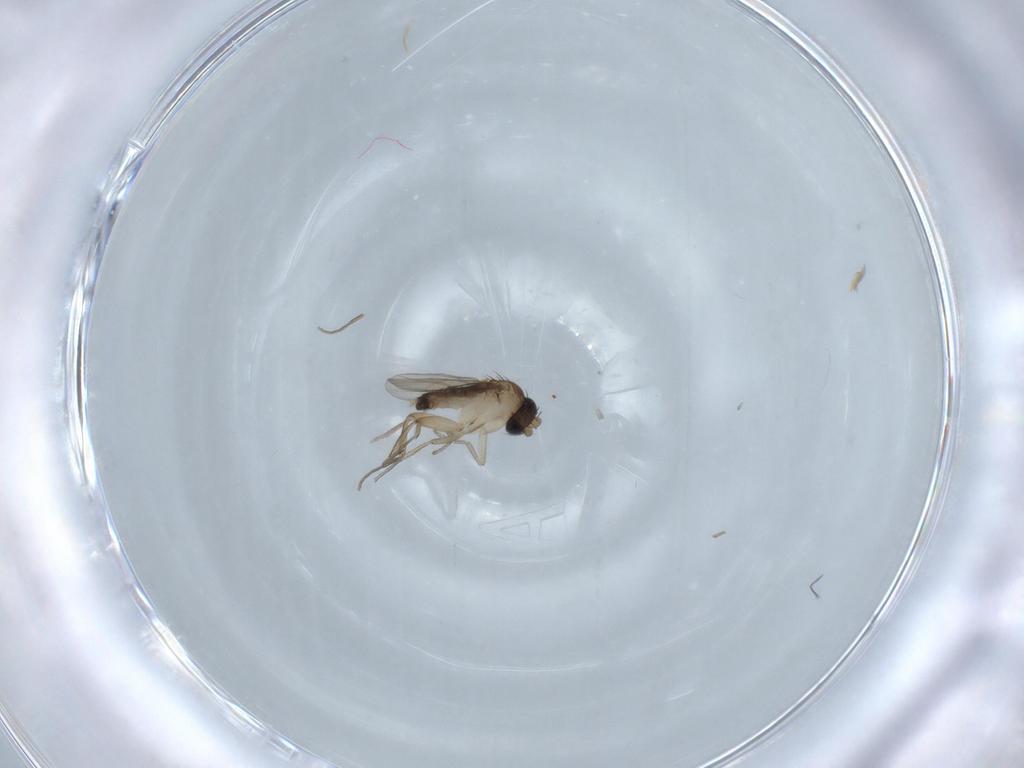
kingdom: Animalia
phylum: Arthropoda
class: Insecta
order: Diptera
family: Phoridae
